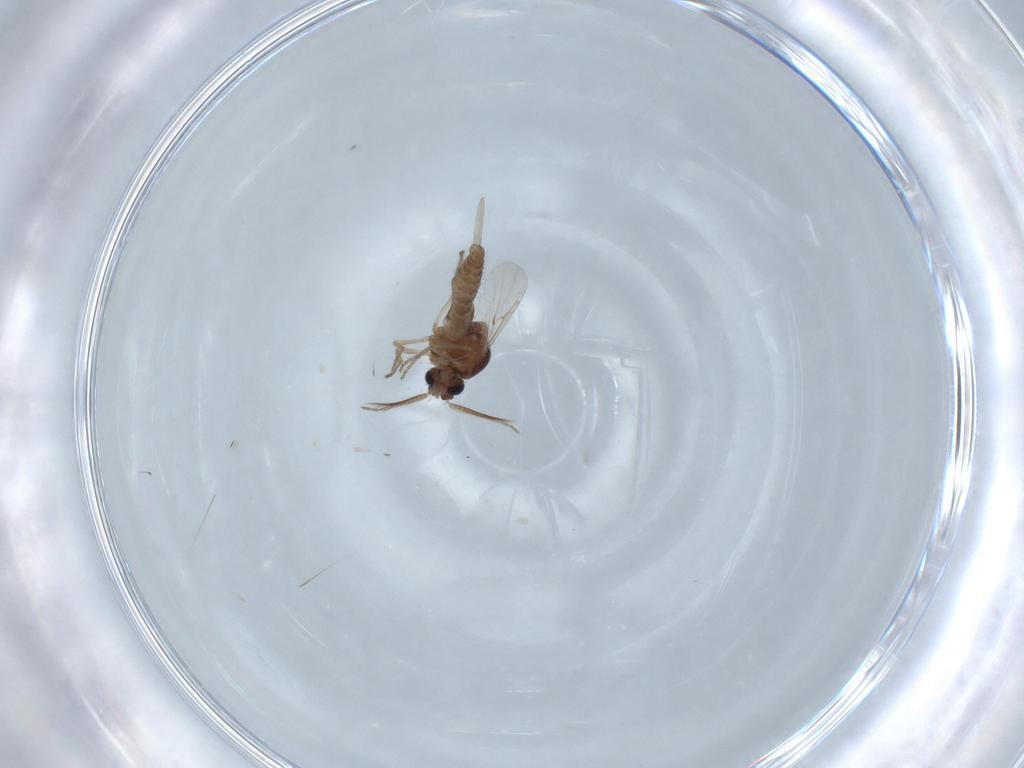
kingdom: Animalia
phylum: Arthropoda
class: Insecta
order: Diptera
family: Ceratopogonidae
